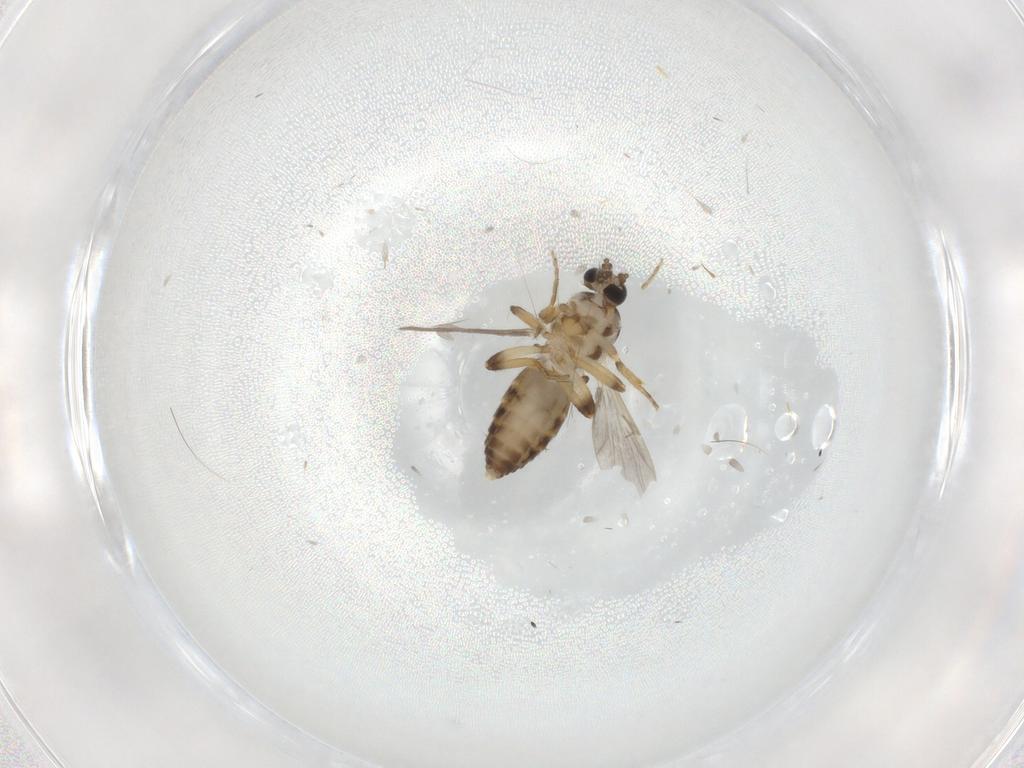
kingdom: Animalia
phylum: Arthropoda
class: Insecta
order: Diptera
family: Ceratopogonidae
